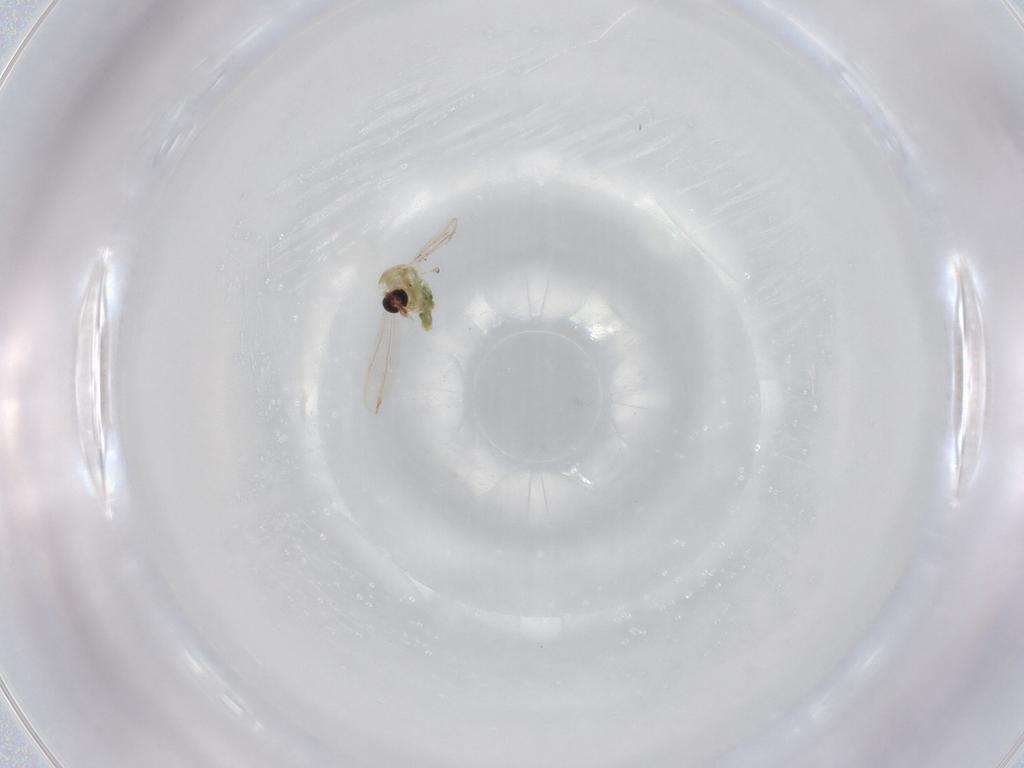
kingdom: Animalia
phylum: Arthropoda
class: Insecta
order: Diptera
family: Chironomidae
